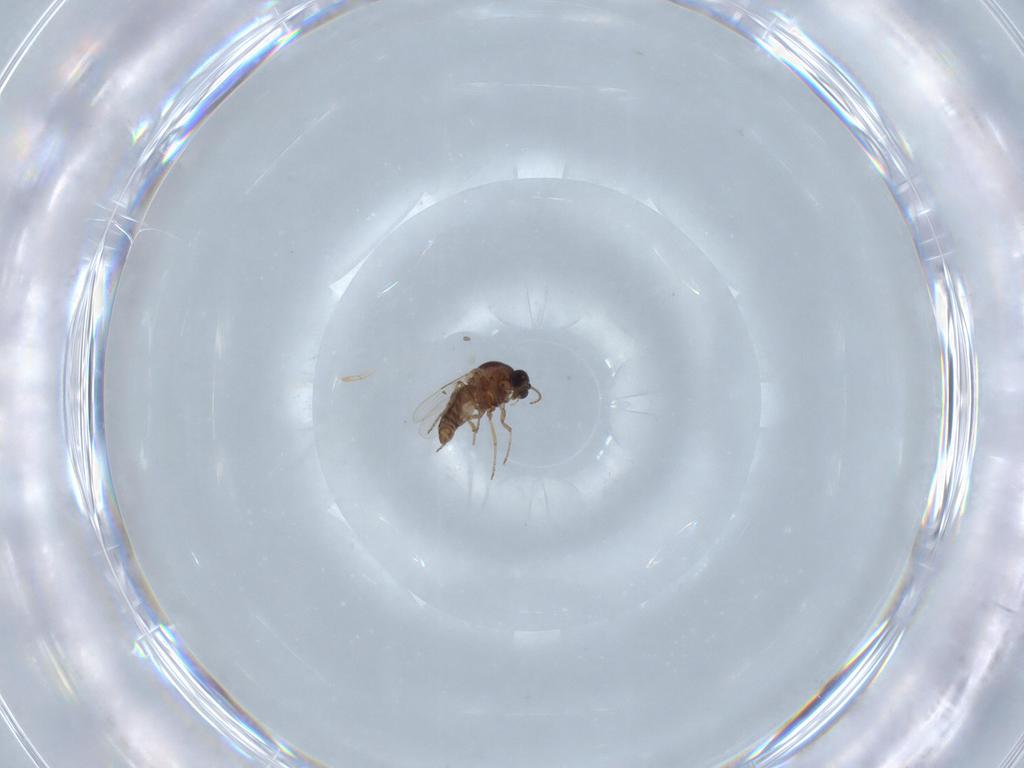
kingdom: Animalia
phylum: Arthropoda
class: Insecta
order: Diptera
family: Ceratopogonidae
